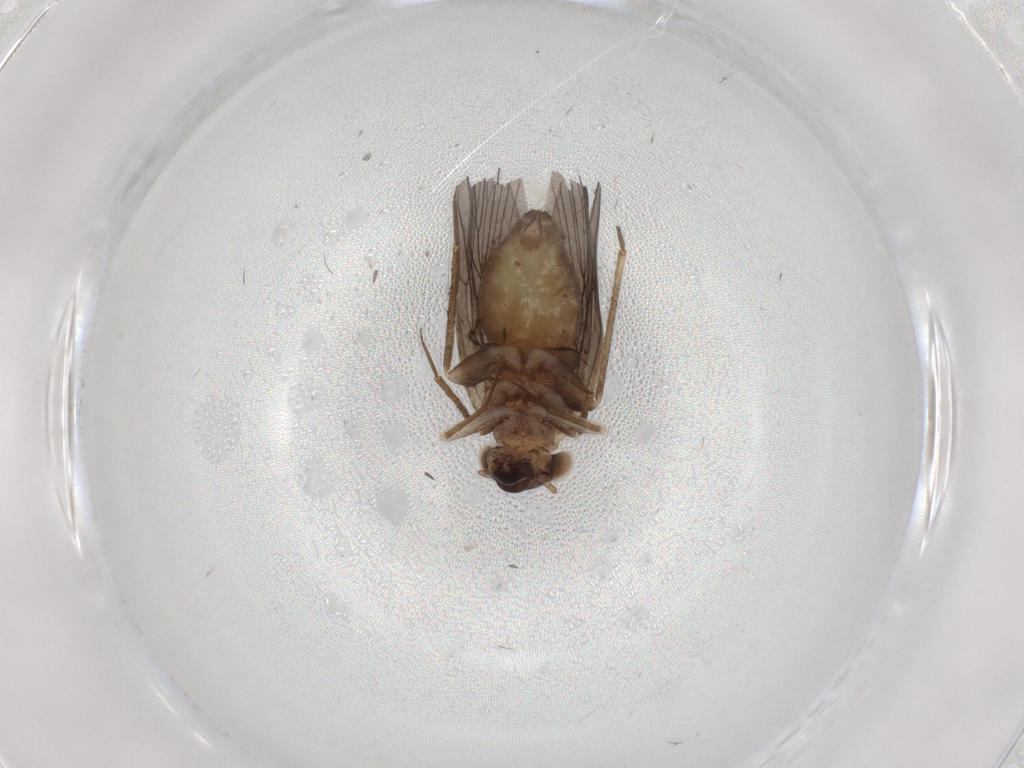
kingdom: Animalia
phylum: Arthropoda
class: Insecta
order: Psocodea
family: Lepidopsocidae
